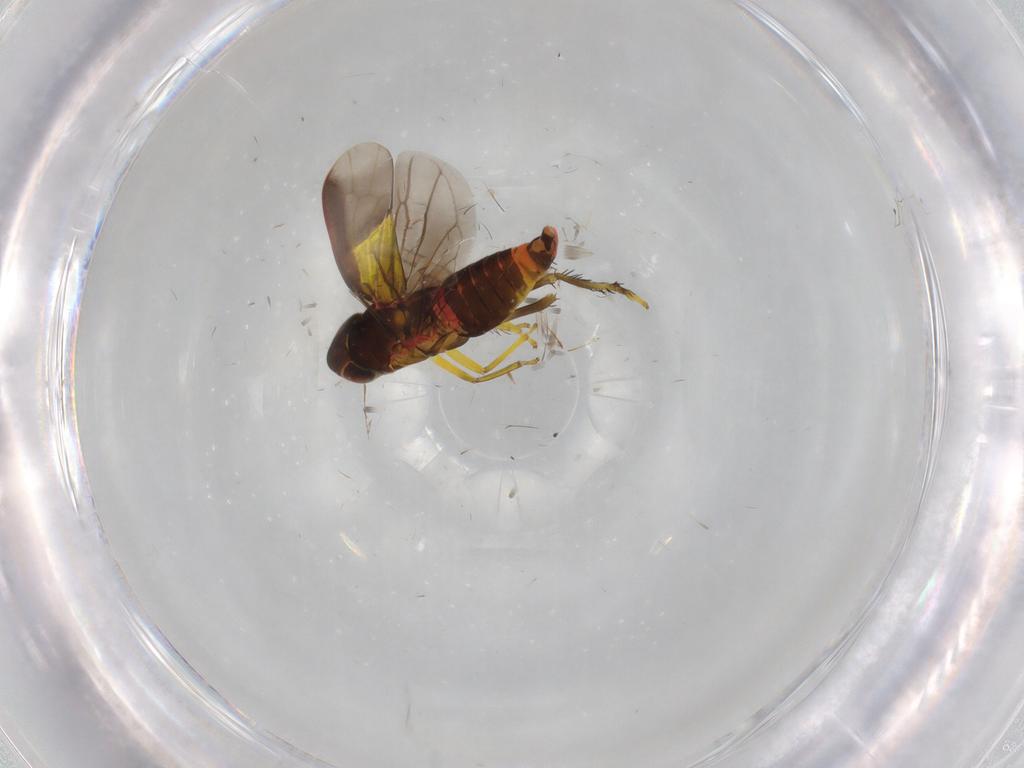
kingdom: Animalia
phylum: Arthropoda
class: Insecta
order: Hemiptera
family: Cicadellidae
